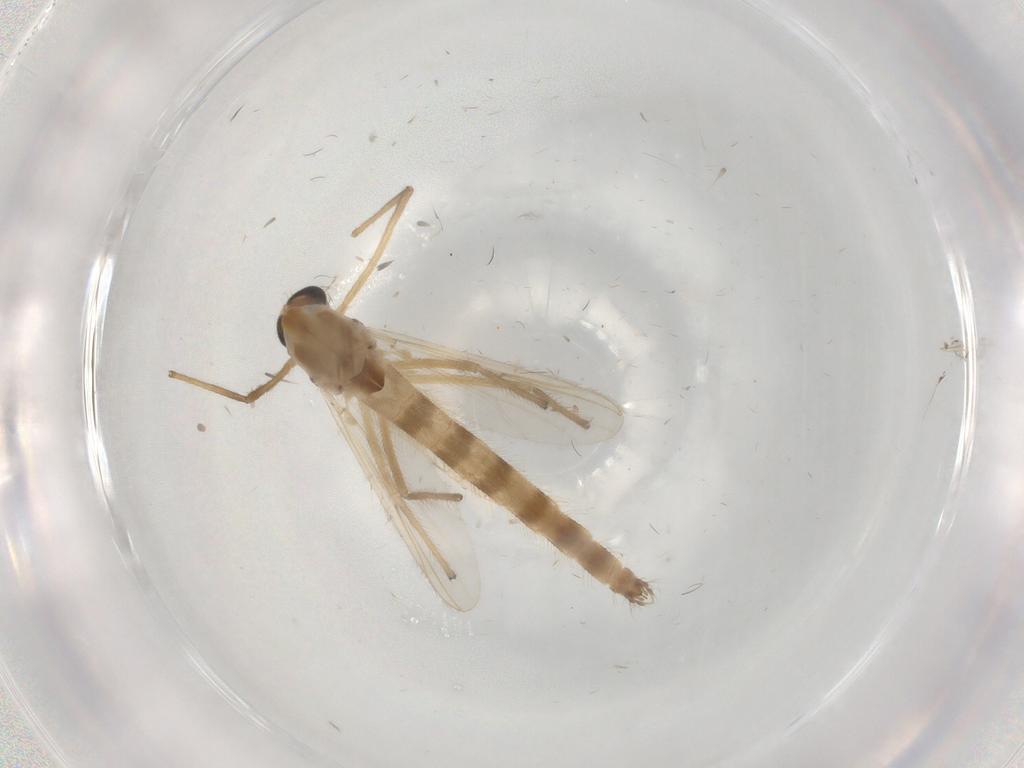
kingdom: Animalia
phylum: Arthropoda
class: Insecta
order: Diptera
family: Chironomidae
